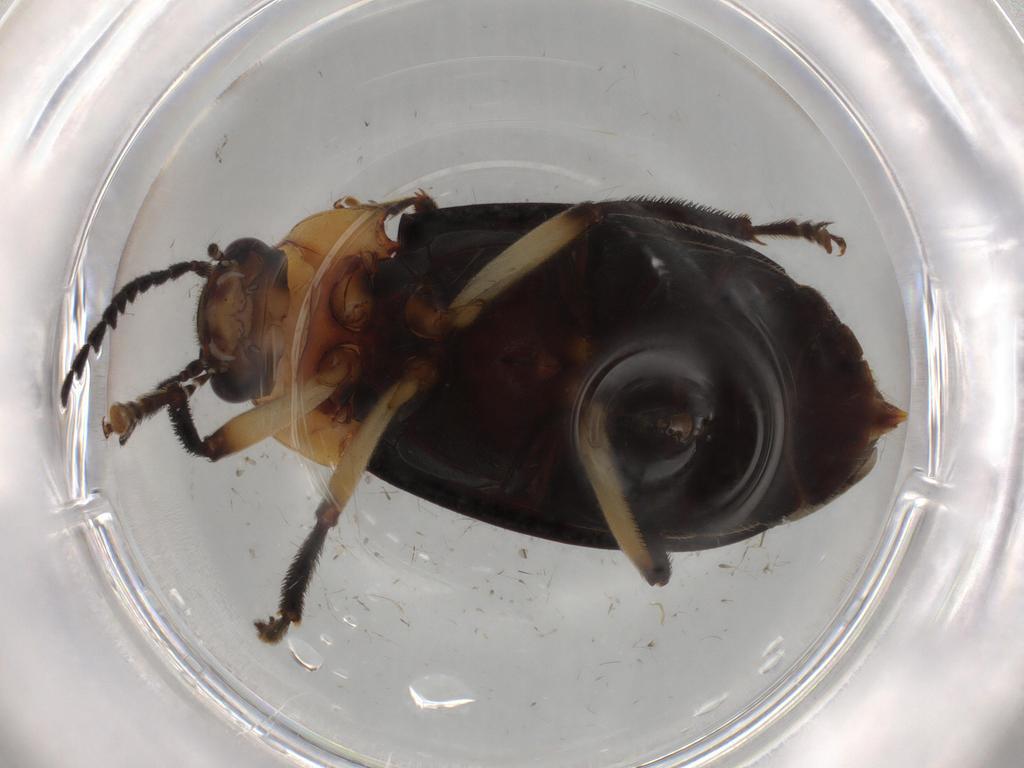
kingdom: Animalia
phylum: Arthropoda
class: Insecta
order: Coleoptera
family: Ptilodactylidae
